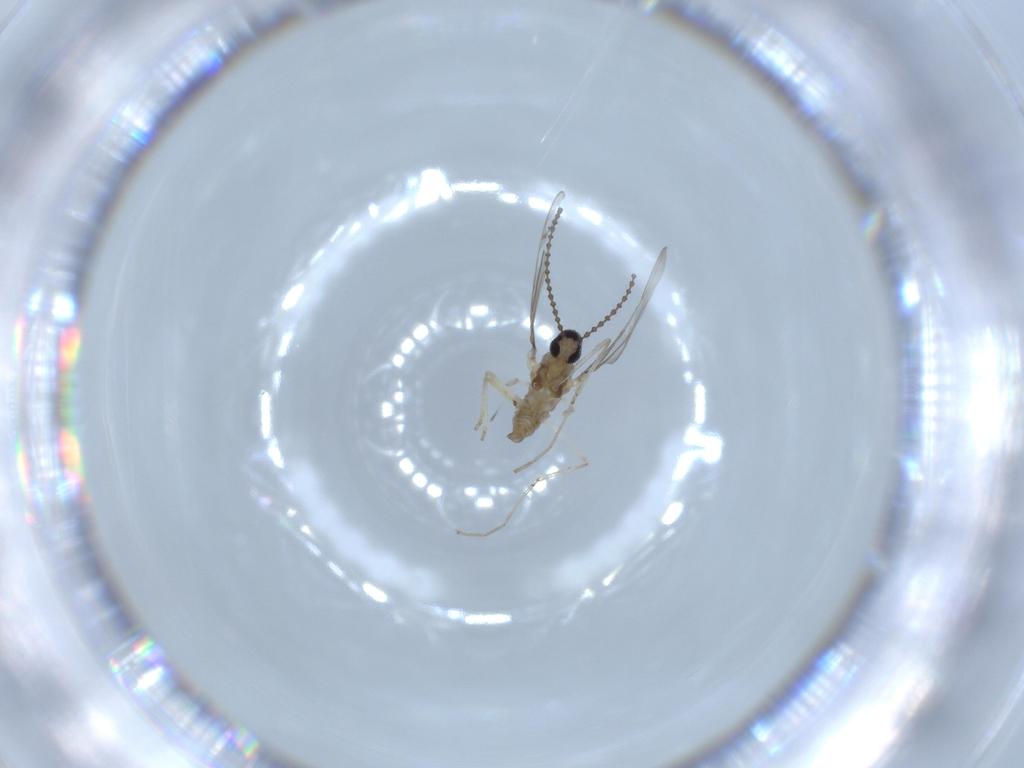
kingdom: Animalia
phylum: Arthropoda
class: Insecta
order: Diptera
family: Cecidomyiidae
